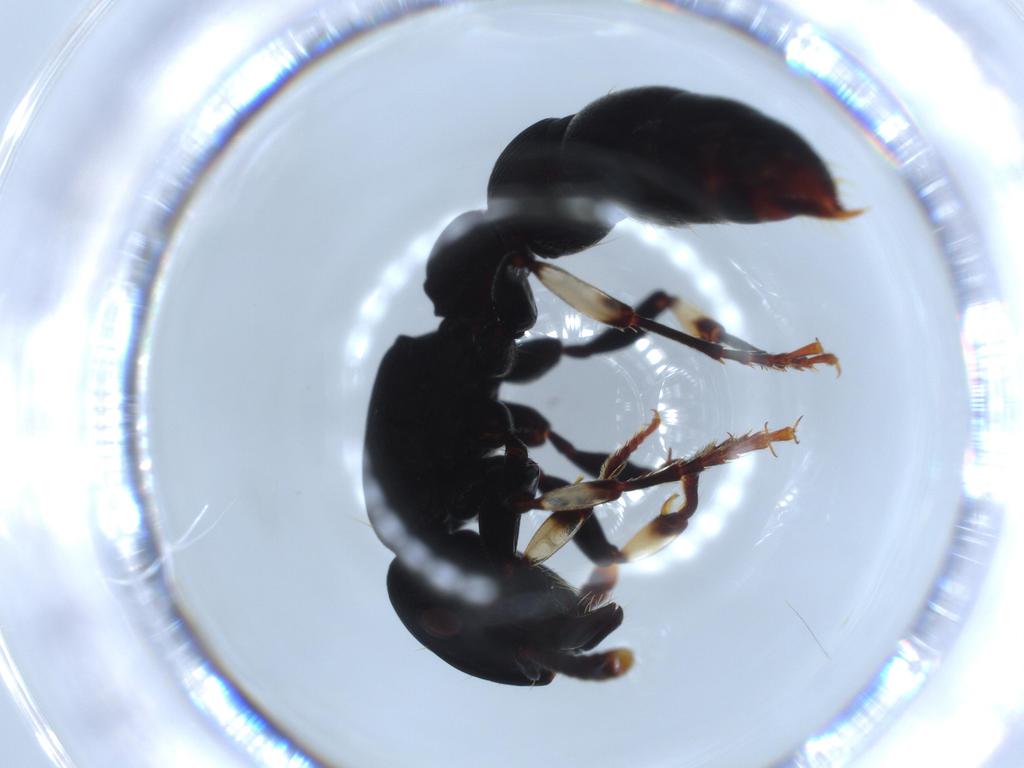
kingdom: Animalia
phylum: Arthropoda
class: Insecta
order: Hymenoptera
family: Formicidae
